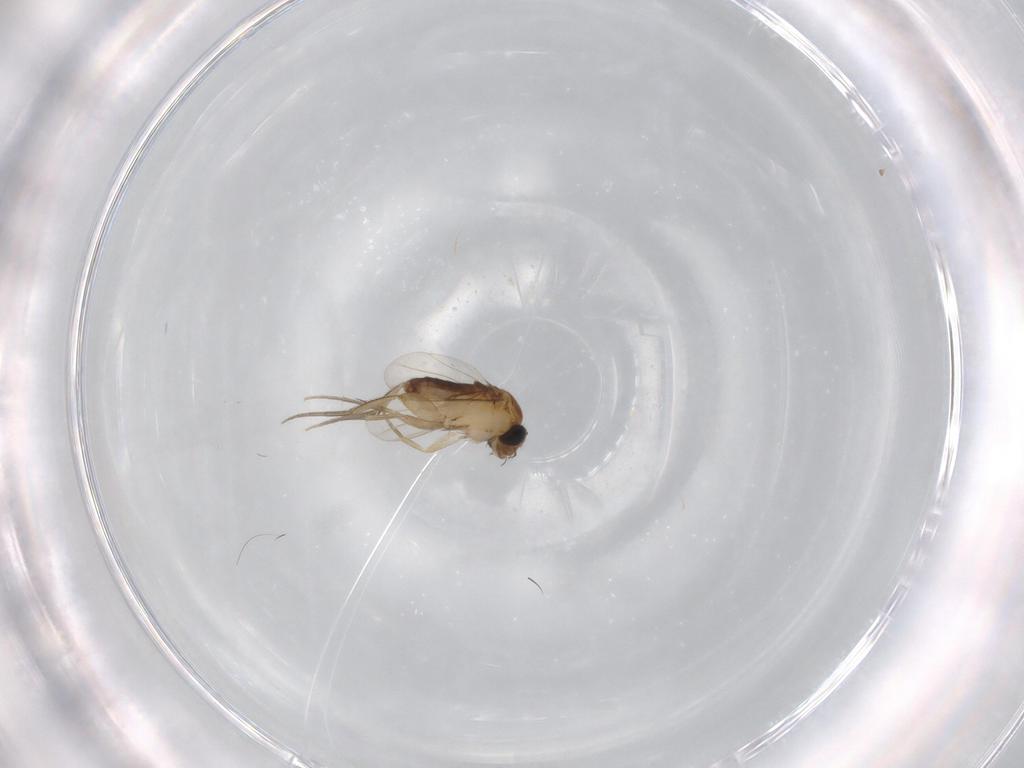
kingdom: Animalia
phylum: Arthropoda
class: Insecta
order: Diptera
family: Phoridae
